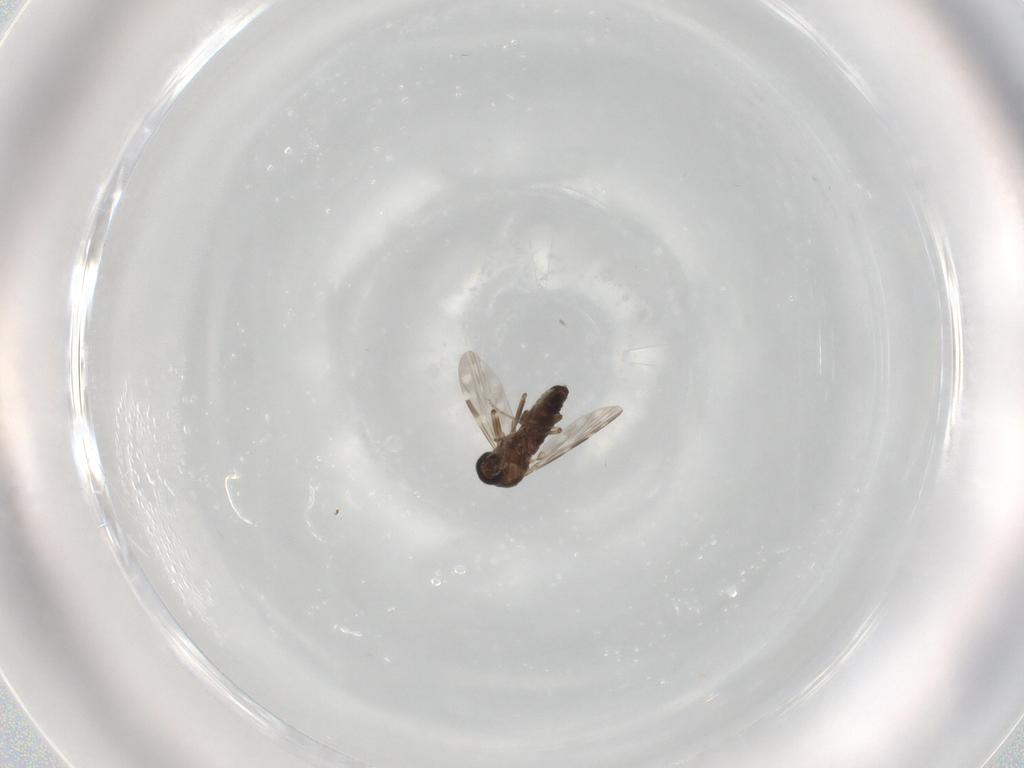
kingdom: Animalia
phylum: Arthropoda
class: Insecta
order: Diptera
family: Ceratopogonidae
